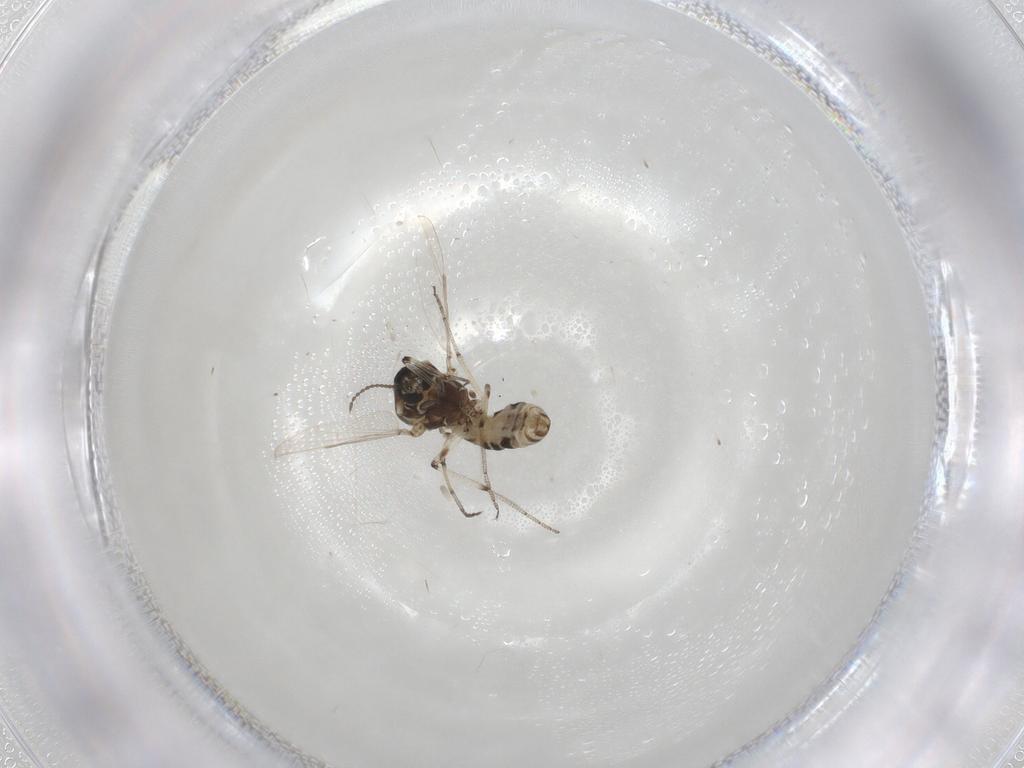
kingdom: Animalia
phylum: Arthropoda
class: Insecta
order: Diptera
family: Ceratopogonidae
